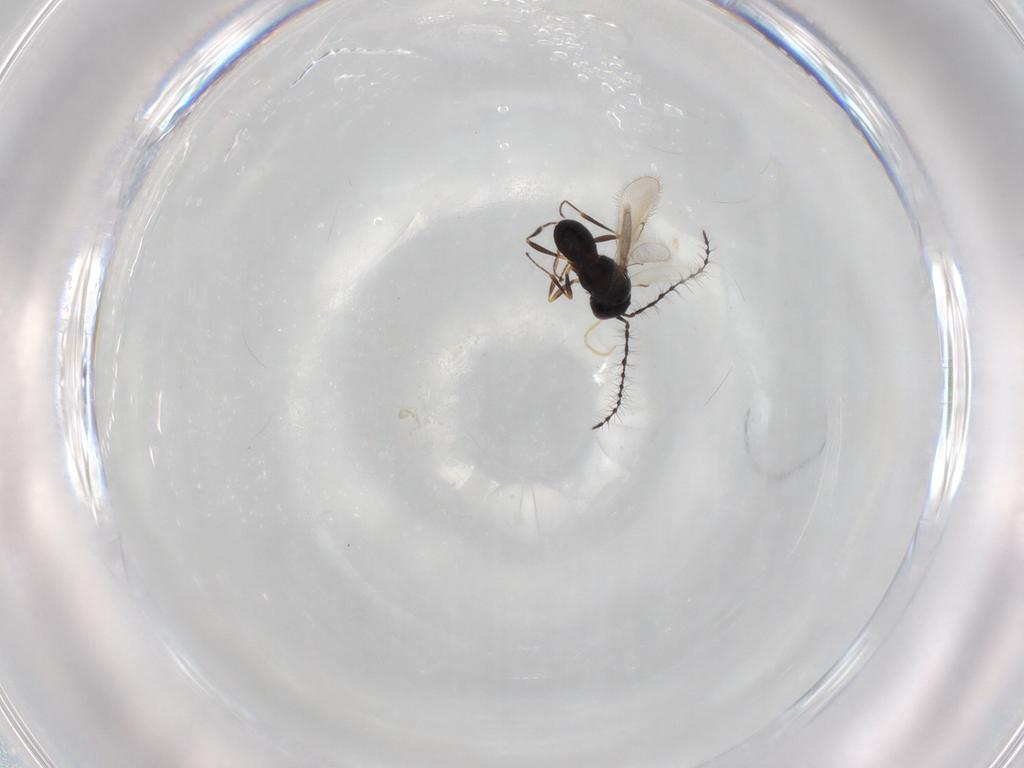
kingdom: Animalia
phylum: Arthropoda
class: Insecta
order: Hymenoptera
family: Scelionidae
